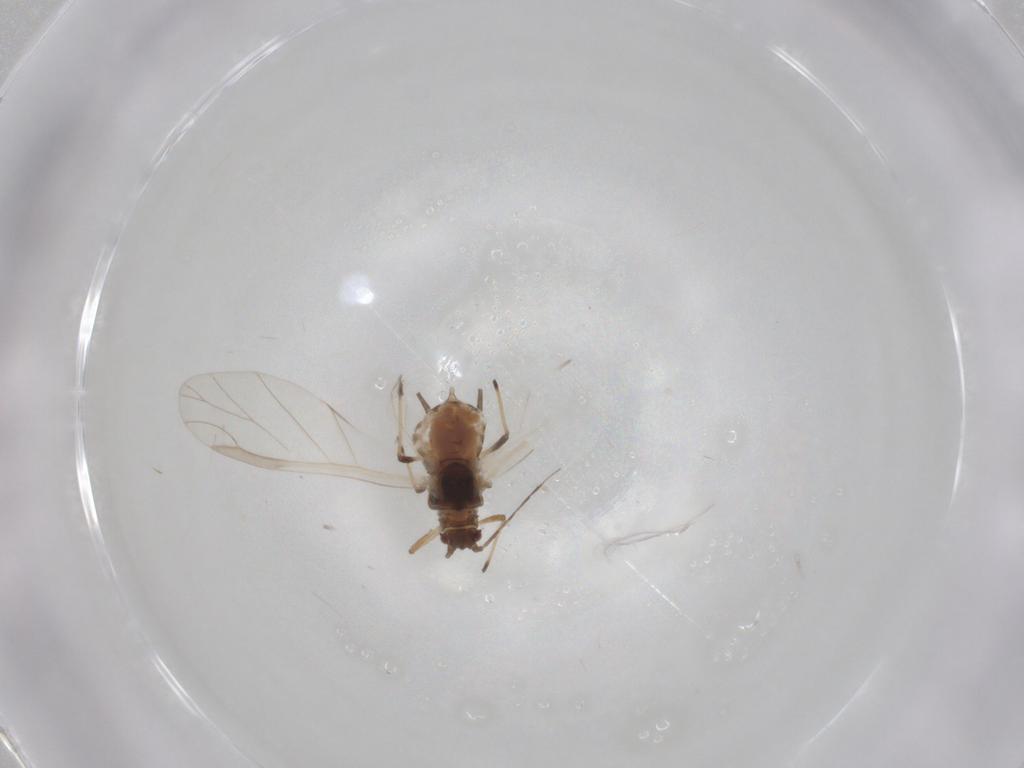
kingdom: Animalia
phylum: Arthropoda
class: Insecta
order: Hemiptera
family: Aphididae
